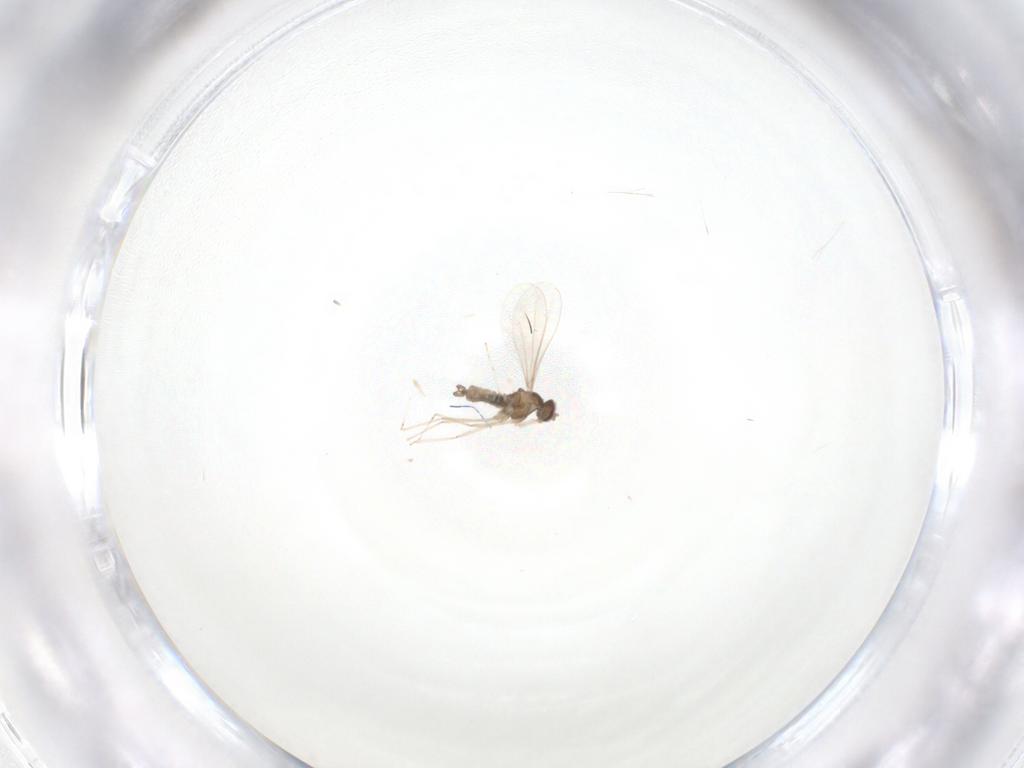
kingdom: Animalia
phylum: Arthropoda
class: Insecta
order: Diptera
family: Cecidomyiidae
